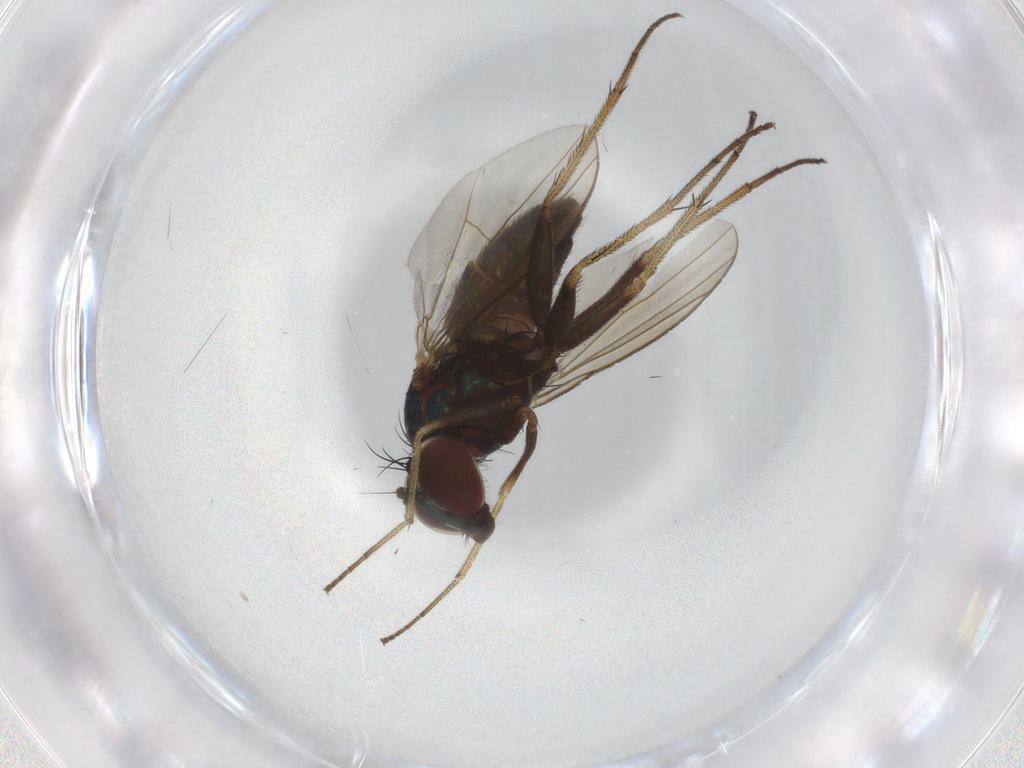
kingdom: Animalia
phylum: Arthropoda
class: Insecta
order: Diptera
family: Dolichopodidae
